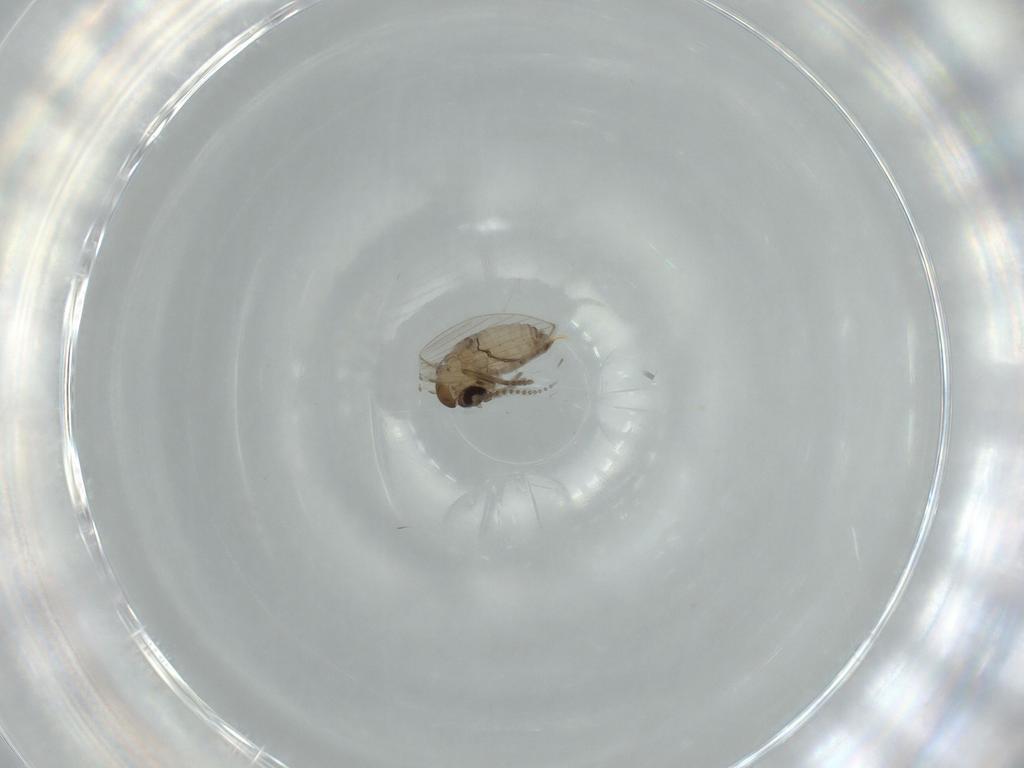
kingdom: Animalia
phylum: Arthropoda
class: Insecta
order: Diptera
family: Psychodidae
